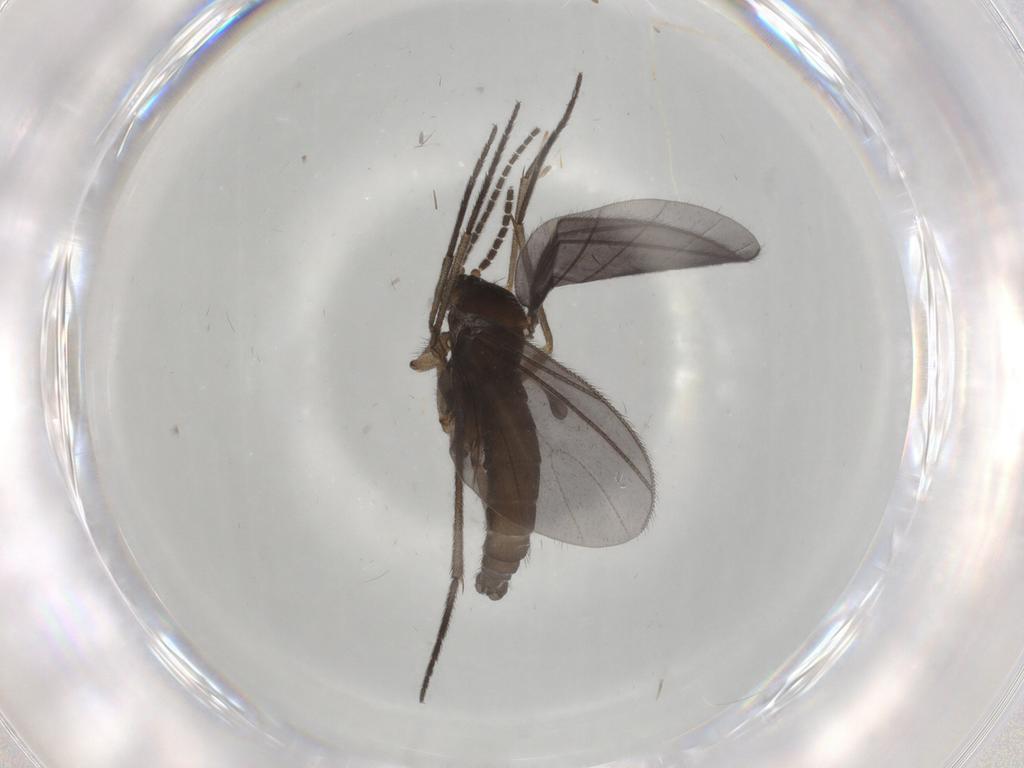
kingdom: Animalia
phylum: Arthropoda
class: Insecta
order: Diptera
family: Sciaridae
